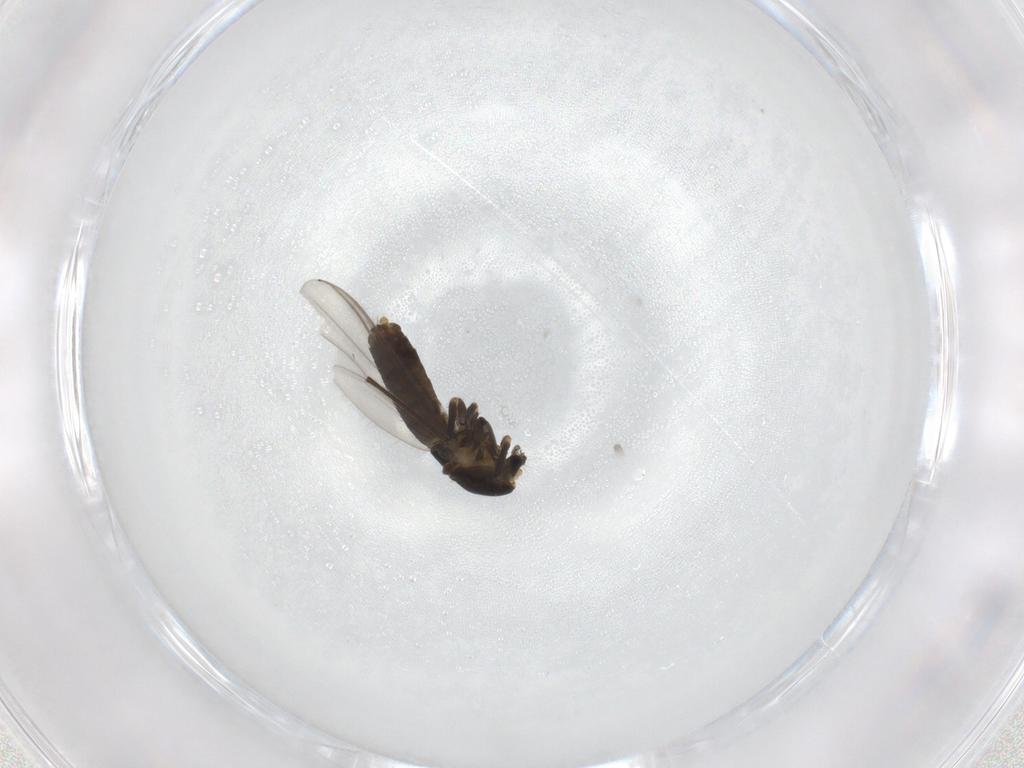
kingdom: Animalia
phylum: Arthropoda
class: Insecta
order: Diptera
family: Chironomidae
